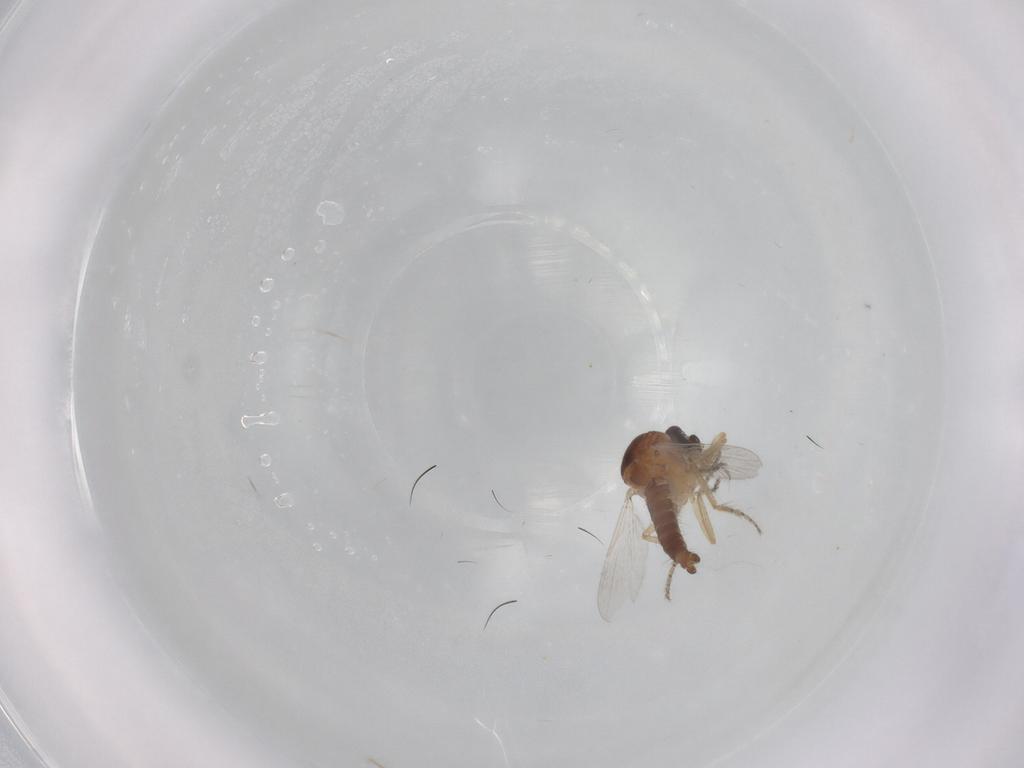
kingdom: Animalia
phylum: Arthropoda
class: Insecta
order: Diptera
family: Ceratopogonidae
